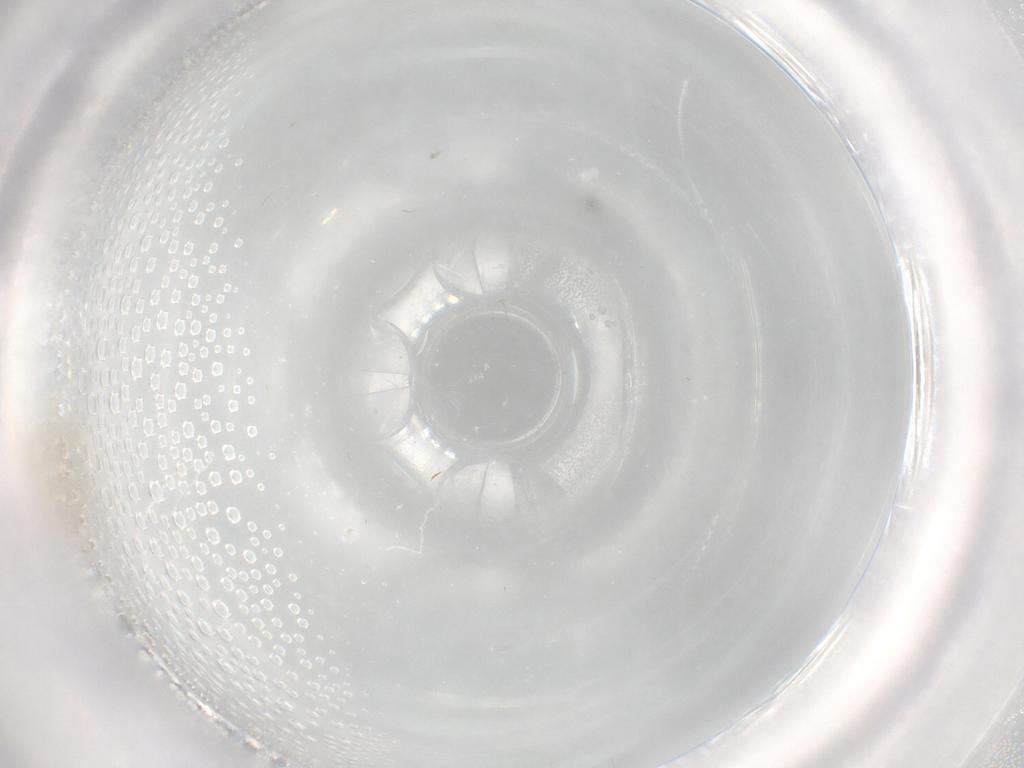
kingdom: Animalia
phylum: Arthropoda
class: Insecta
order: Diptera
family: Chironomidae
